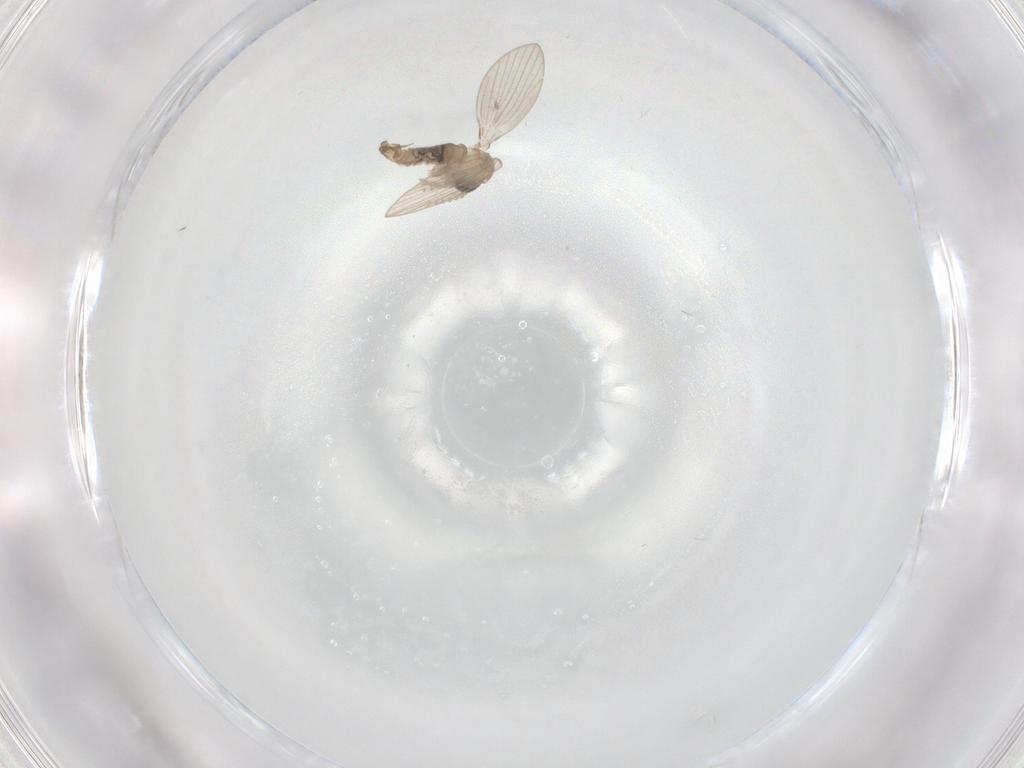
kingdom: Animalia
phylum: Arthropoda
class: Insecta
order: Diptera
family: Psychodidae
